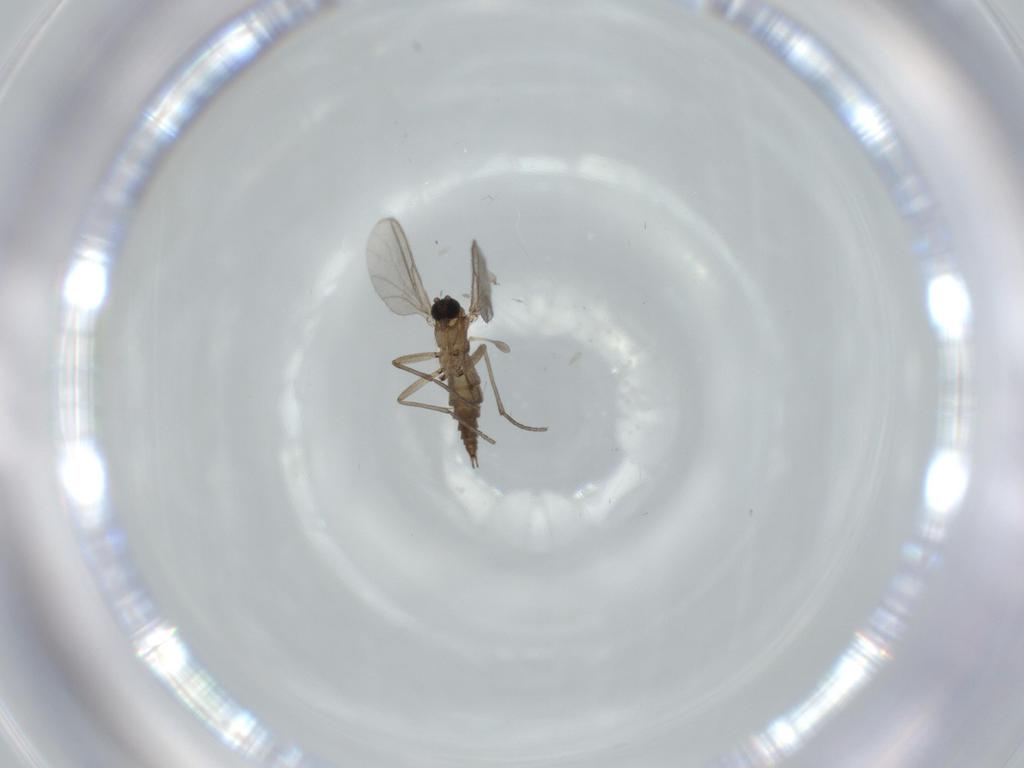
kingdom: Animalia
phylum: Arthropoda
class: Insecta
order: Diptera
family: Sciaridae
